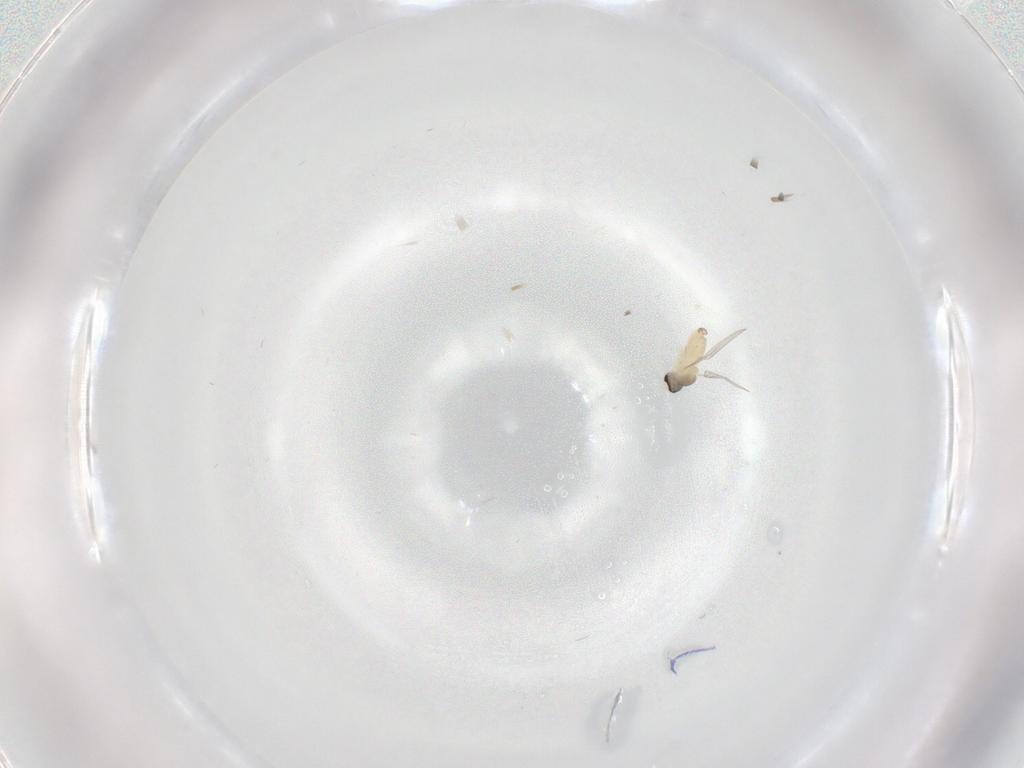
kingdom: Animalia
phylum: Arthropoda
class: Insecta
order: Diptera
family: Cecidomyiidae
